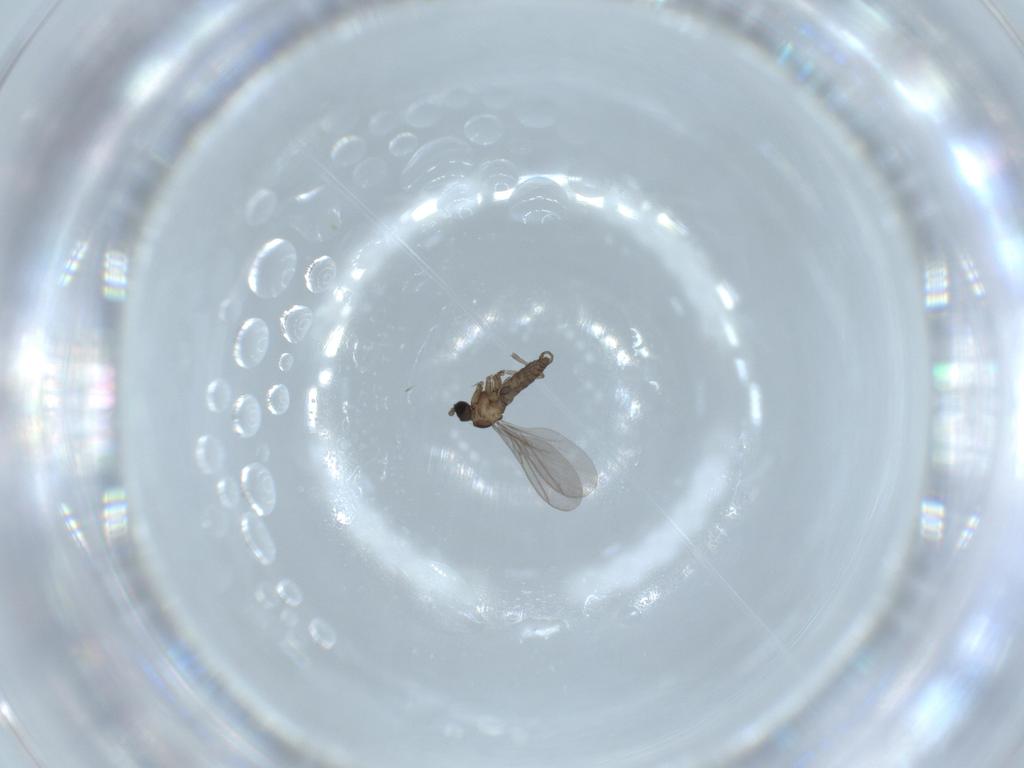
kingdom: Animalia
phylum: Arthropoda
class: Insecta
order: Diptera
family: Sciaridae
